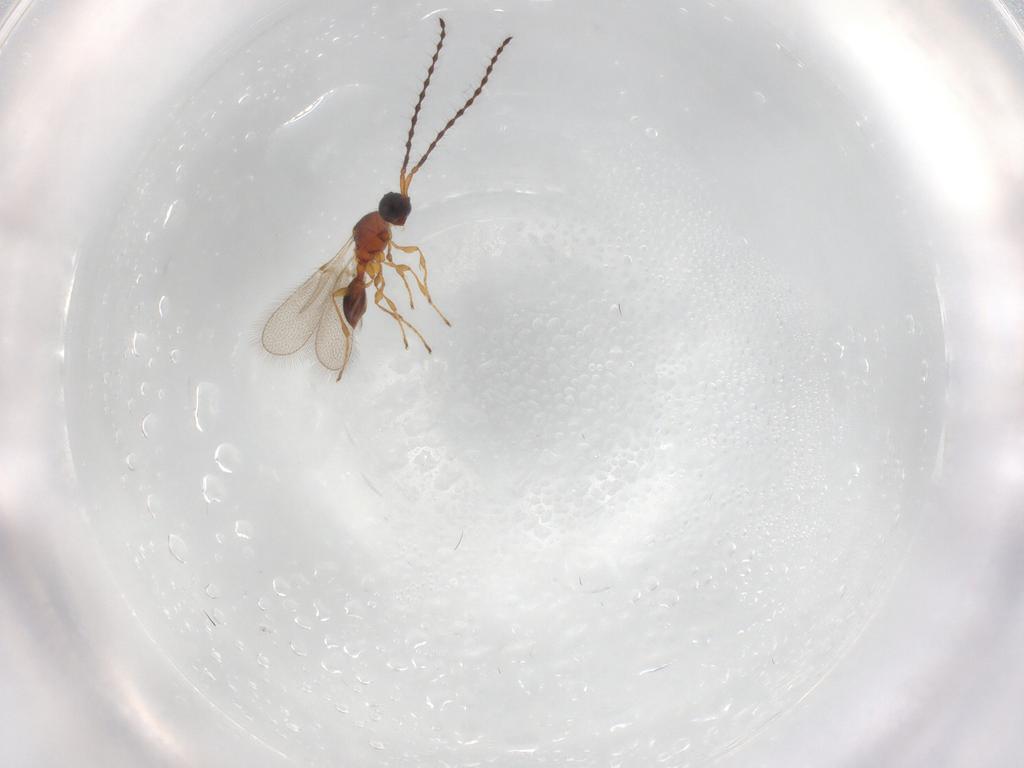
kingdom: Animalia
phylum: Arthropoda
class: Insecta
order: Hymenoptera
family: Diapriidae
